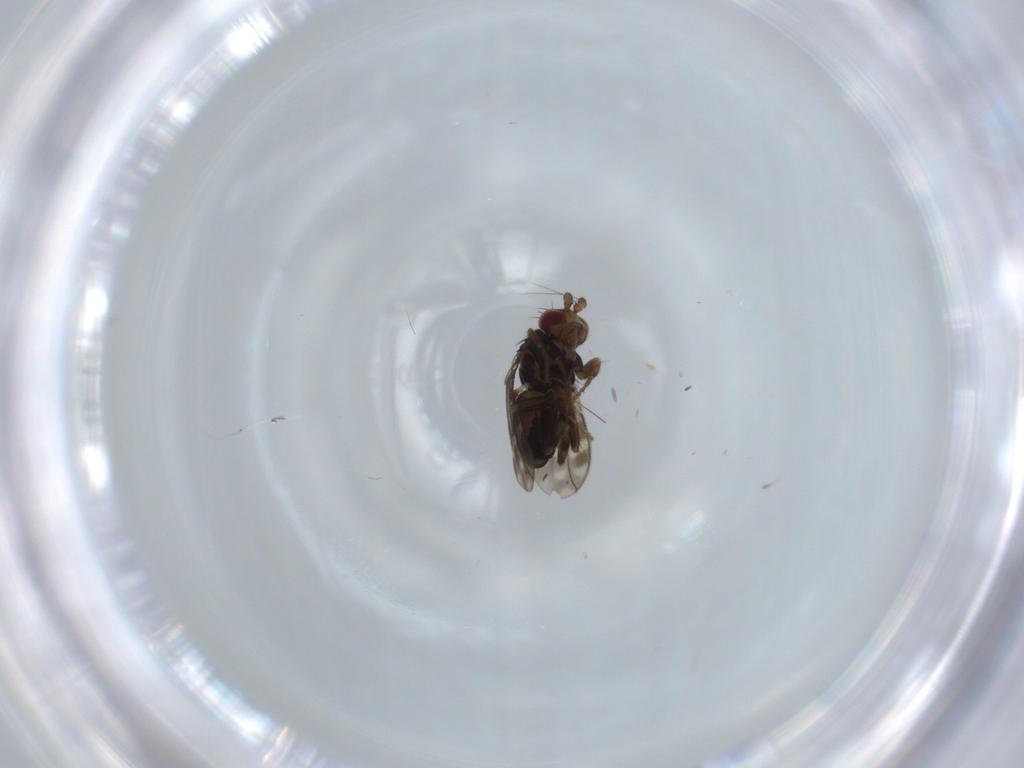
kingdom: Animalia
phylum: Arthropoda
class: Insecta
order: Diptera
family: Sphaeroceridae
